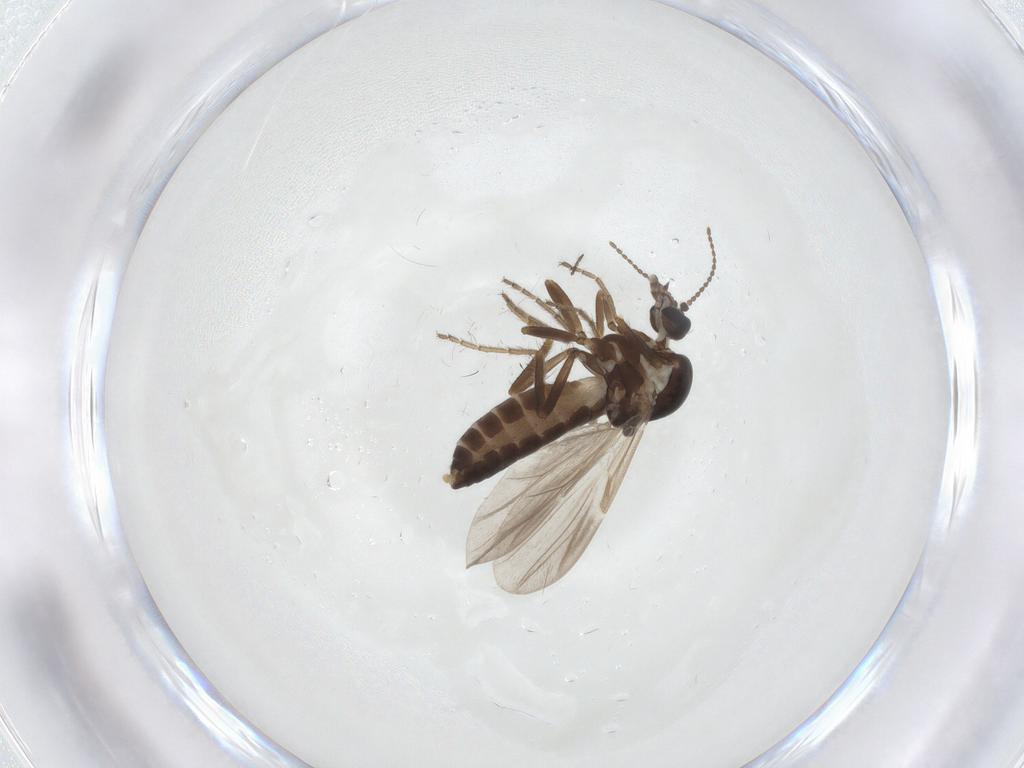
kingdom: Animalia
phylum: Arthropoda
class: Insecta
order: Diptera
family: Ceratopogonidae
